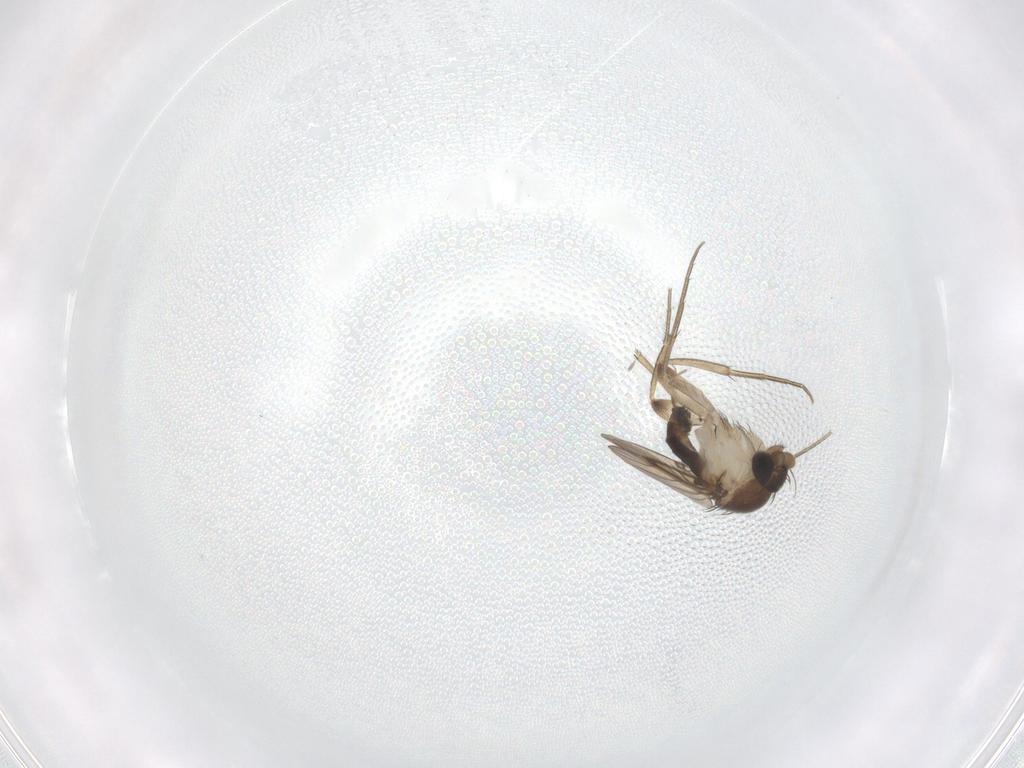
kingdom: Animalia
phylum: Arthropoda
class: Insecta
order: Diptera
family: Phoridae
